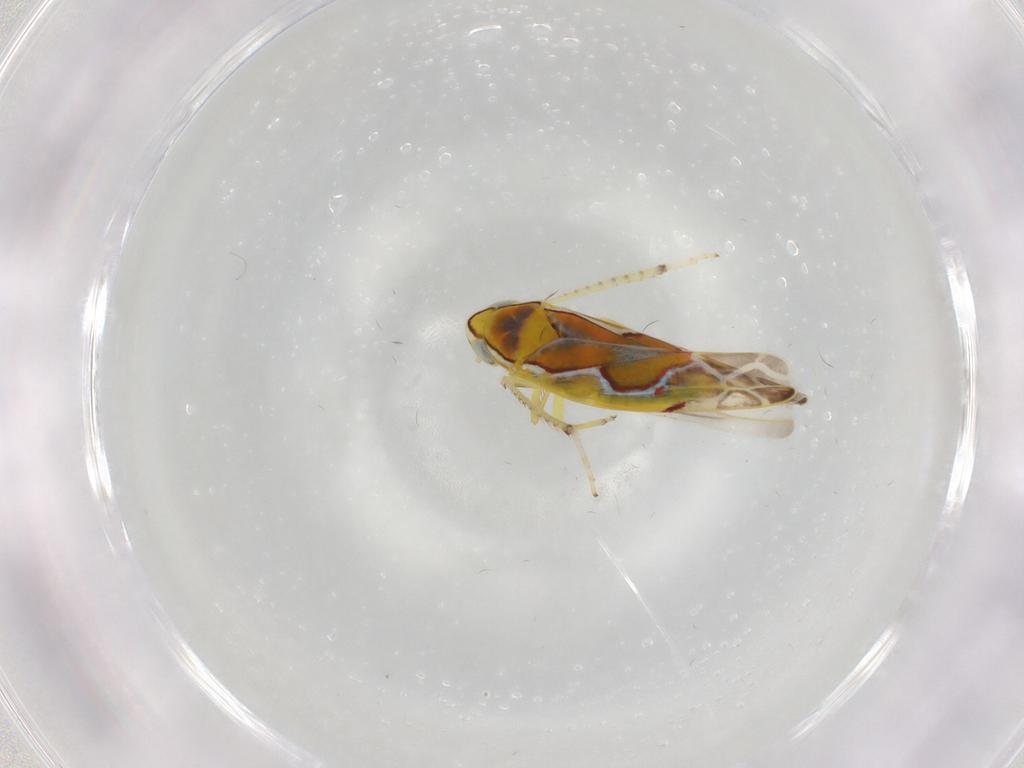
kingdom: Animalia
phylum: Arthropoda
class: Insecta
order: Hemiptera
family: Cicadellidae
